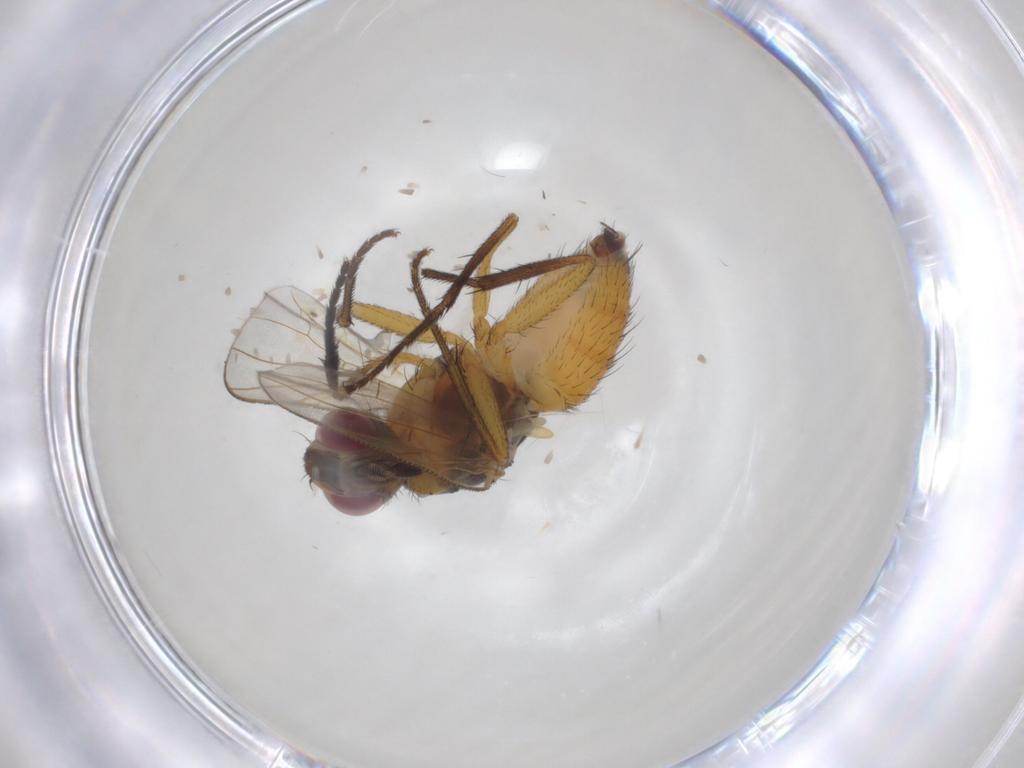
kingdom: Animalia
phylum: Arthropoda
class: Insecta
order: Diptera
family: Muscidae
